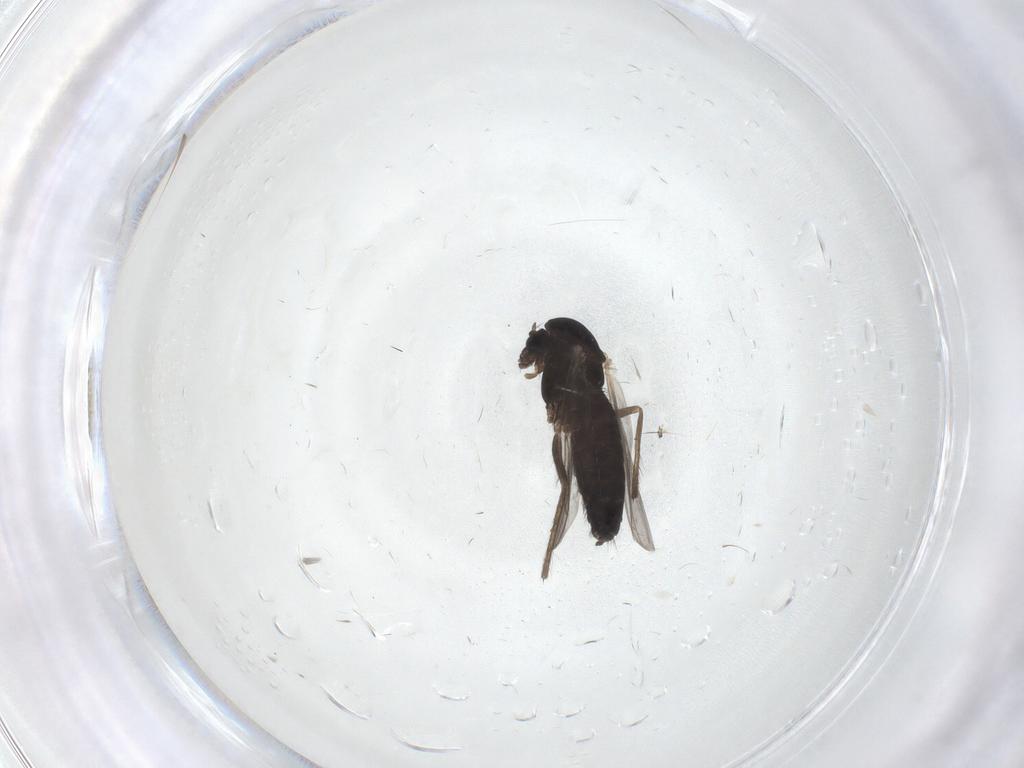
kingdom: Animalia
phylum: Arthropoda
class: Insecta
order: Diptera
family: Chironomidae
